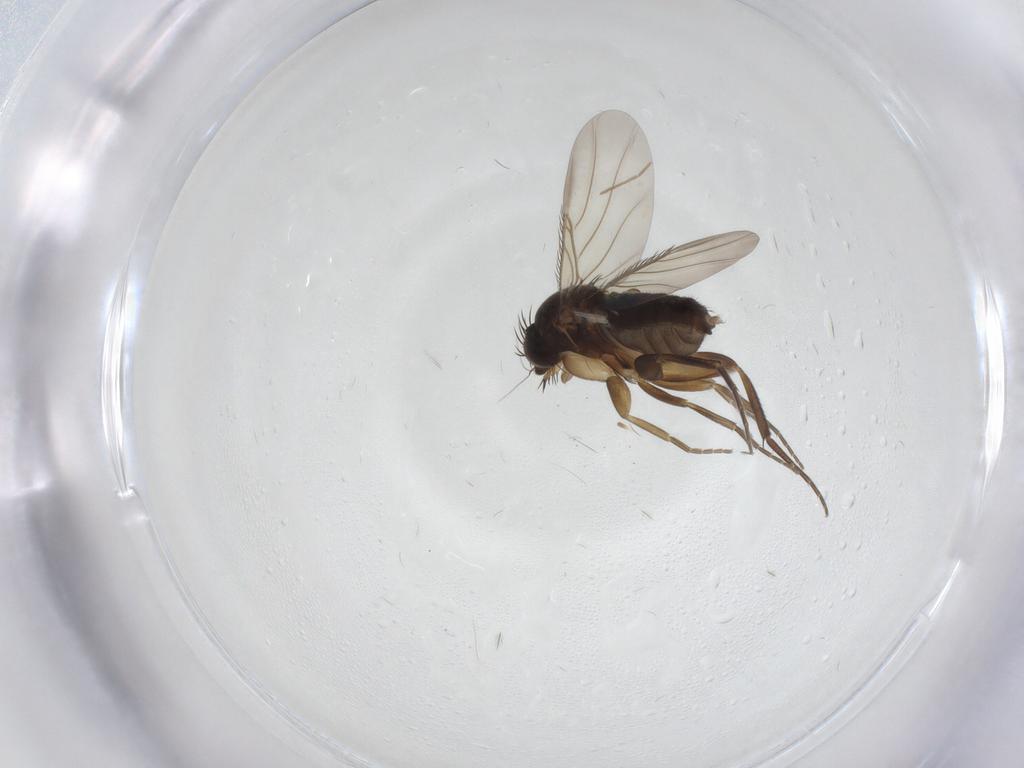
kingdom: Animalia
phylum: Arthropoda
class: Insecta
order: Diptera
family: Phoridae
